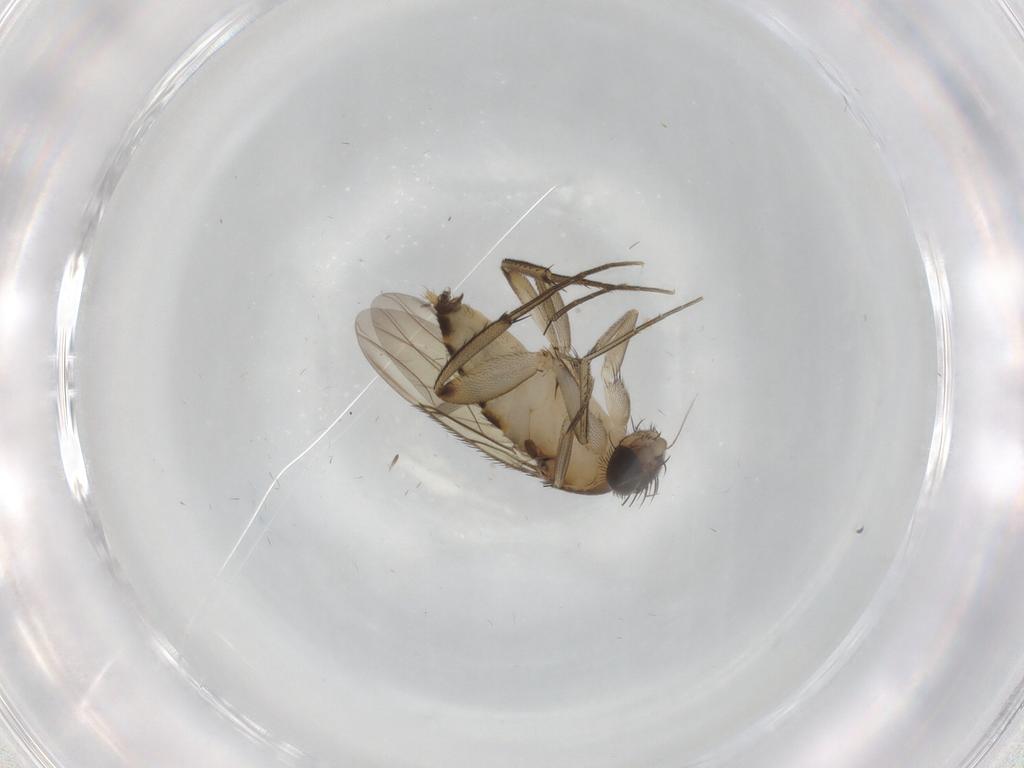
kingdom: Animalia
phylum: Arthropoda
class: Insecta
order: Diptera
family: Phoridae
